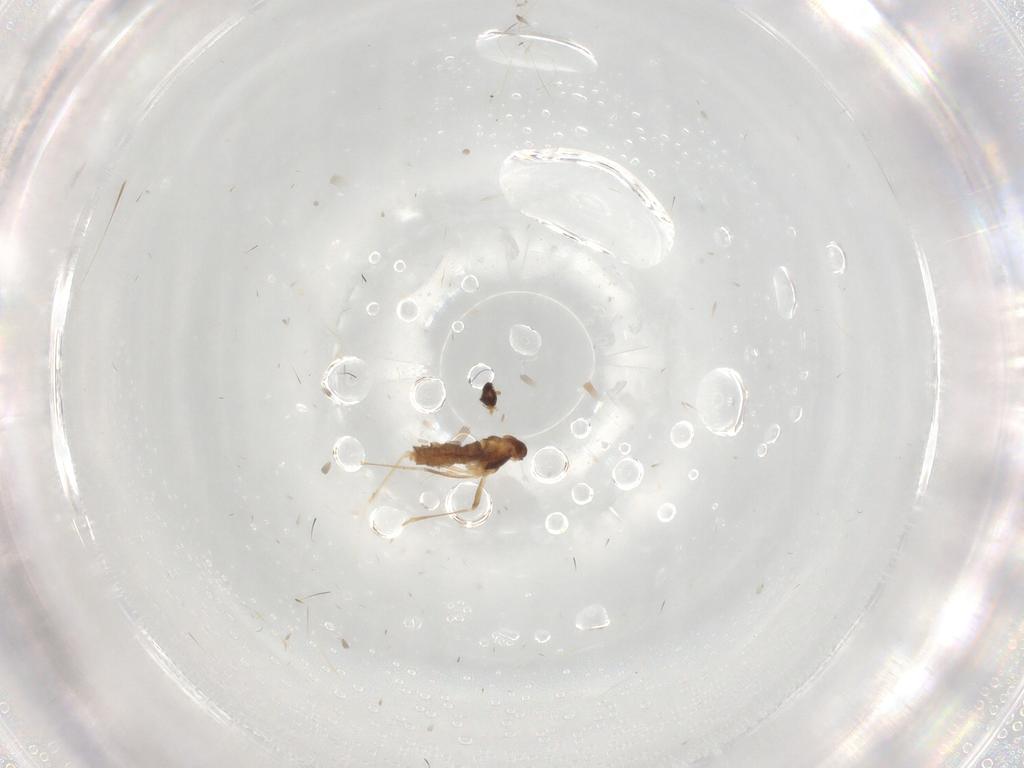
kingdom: Animalia
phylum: Arthropoda
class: Insecta
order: Diptera
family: Cecidomyiidae
